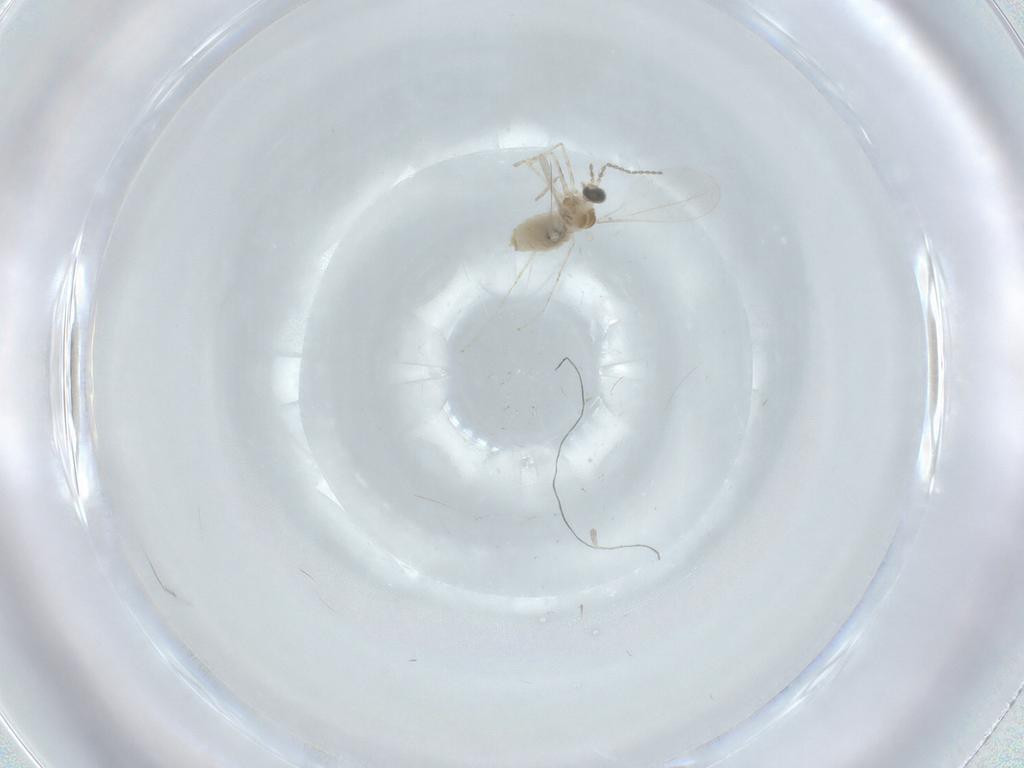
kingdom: Animalia
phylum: Arthropoda
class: Insecta
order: Diptera
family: Cecidomyiidae
